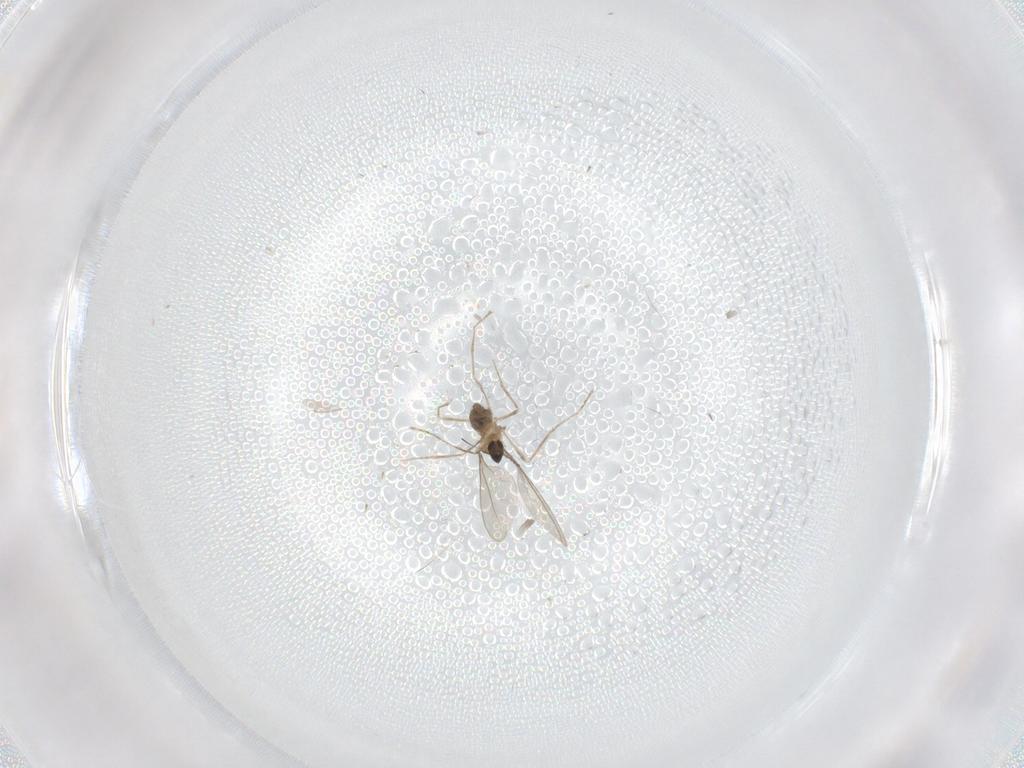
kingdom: Animalia
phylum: Arthropoda
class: Insecta
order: Diptera
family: Cecidomyiidae
